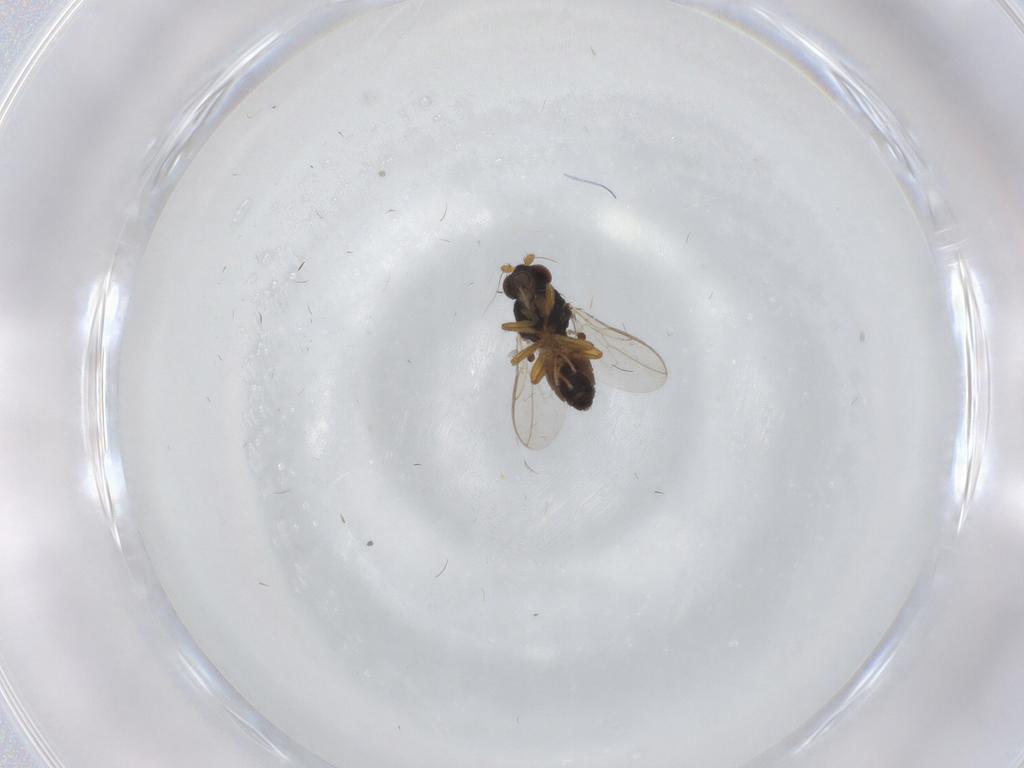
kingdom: Animalia
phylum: Arthropoda
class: Insecta
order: Diptera
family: Sphaeroceridae
